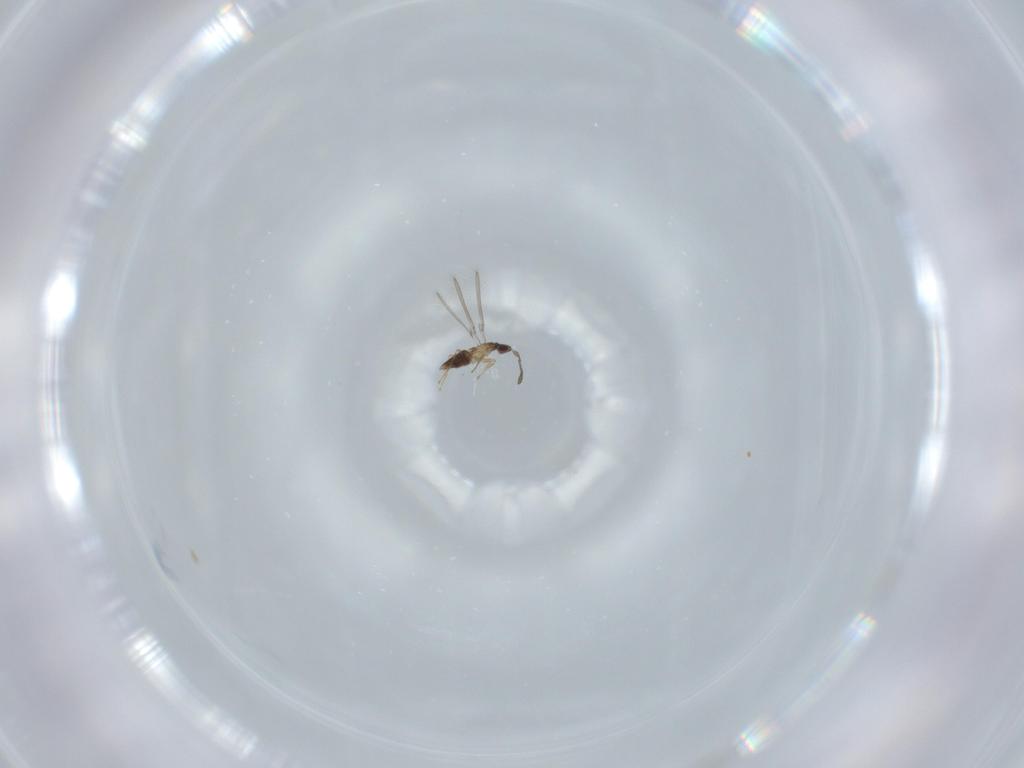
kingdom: Animalia
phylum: Arthropoda
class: Insecta
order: Hymenoptera
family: Mymaridae
